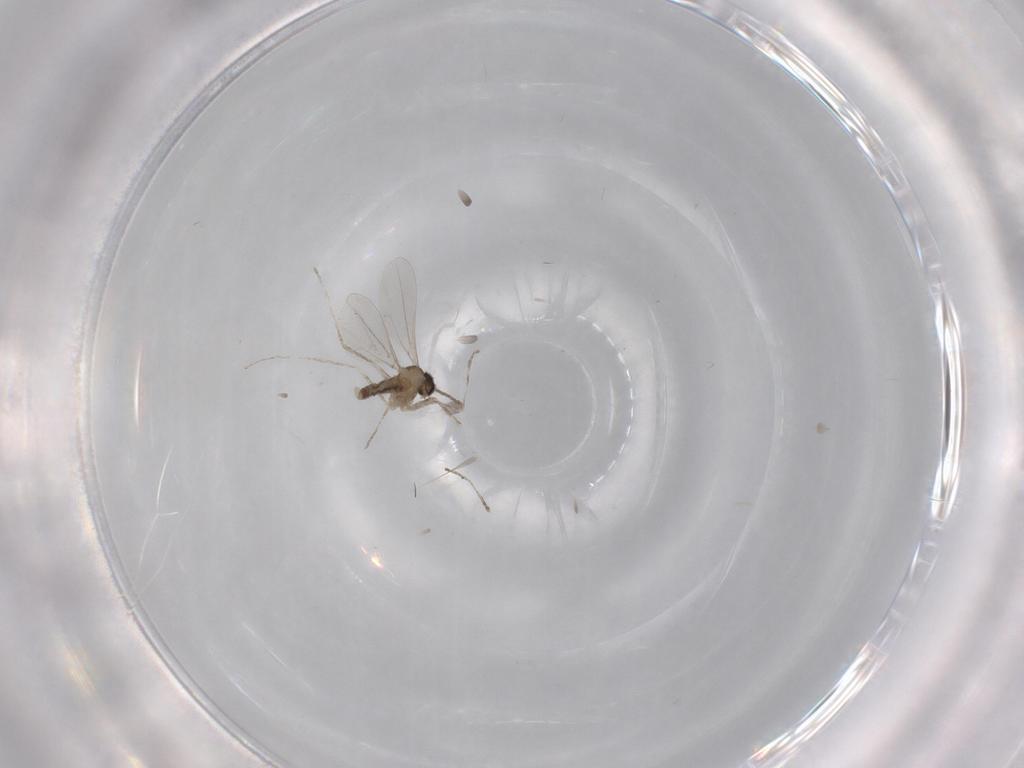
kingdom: Animalia
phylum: Arthropoda
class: Insecta
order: Diptera
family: Cecidomyiidae
